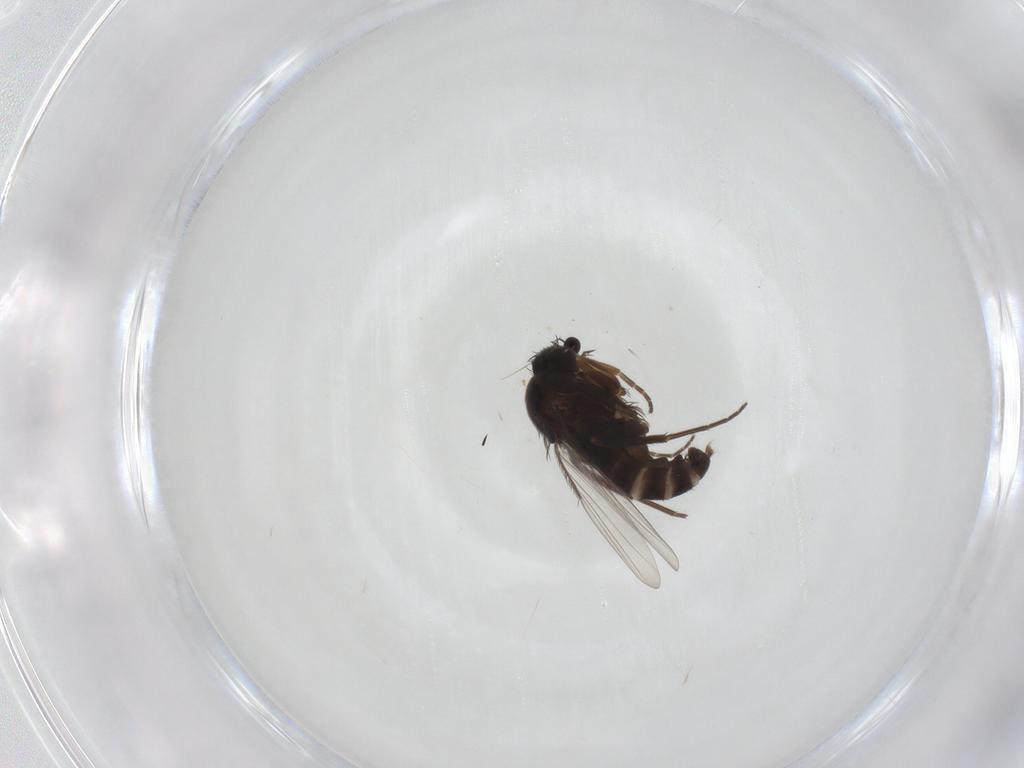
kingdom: Animalia
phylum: Arthropoda
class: Insecta
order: Diptera
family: Phoridae
